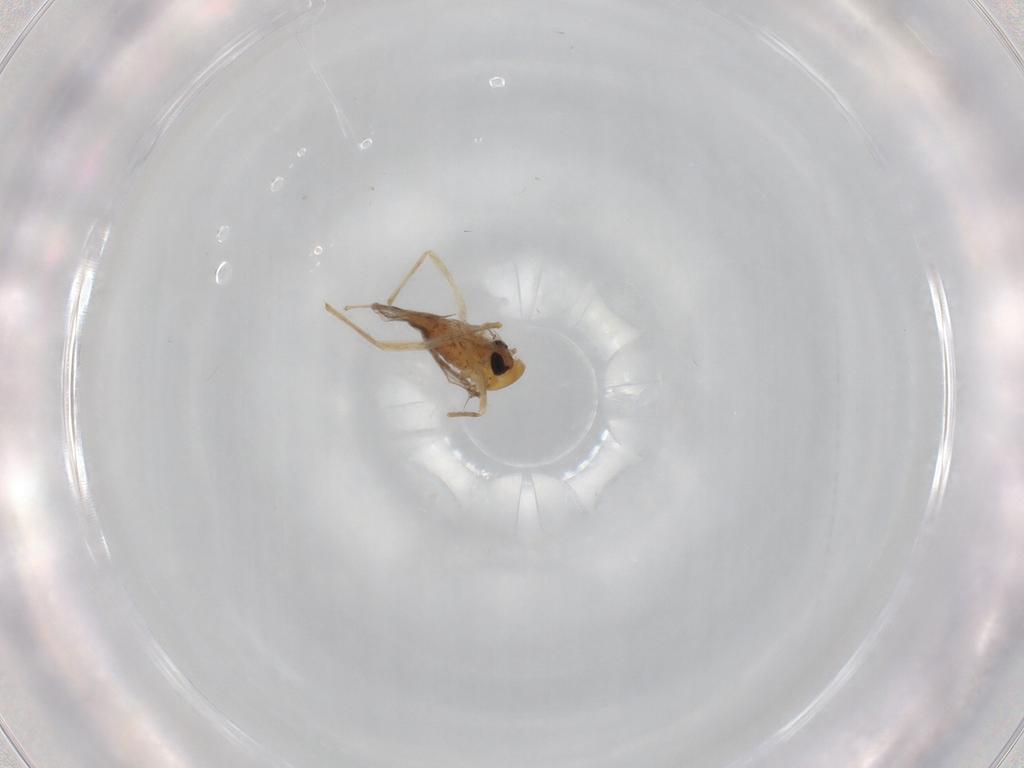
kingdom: Animalia
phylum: Arthropoda
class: Insecta
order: Diptera
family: Chironomidae
